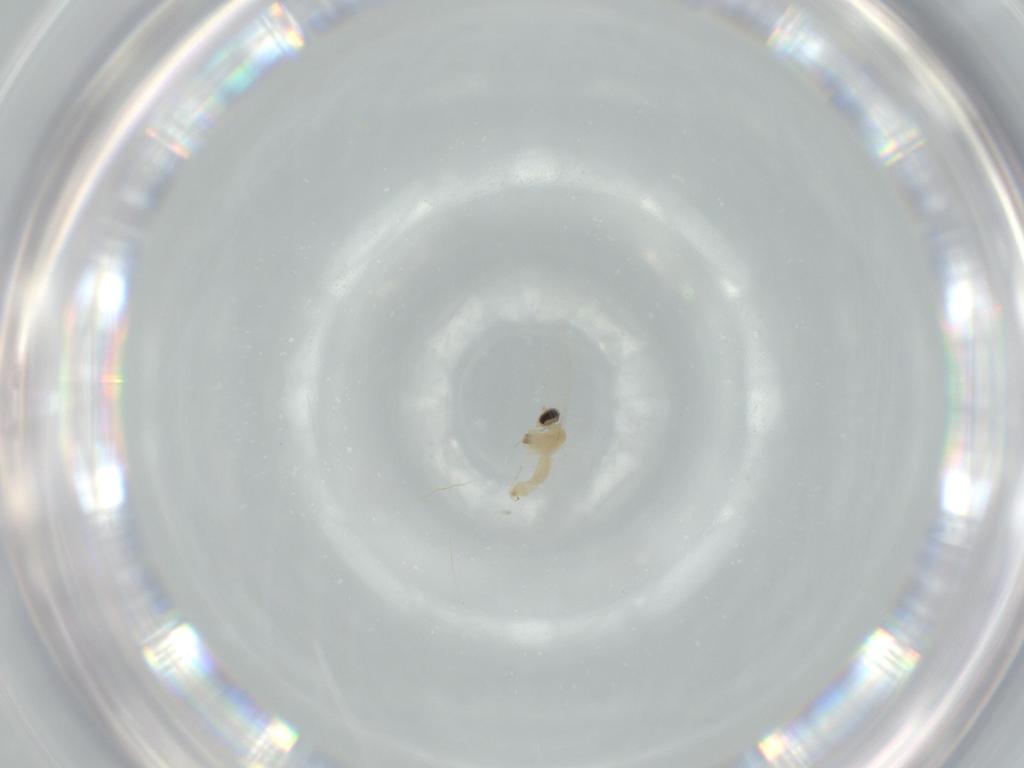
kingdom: Animalia
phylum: Arthropoda
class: Insecta
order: Diptera
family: Cecidomyiidae
